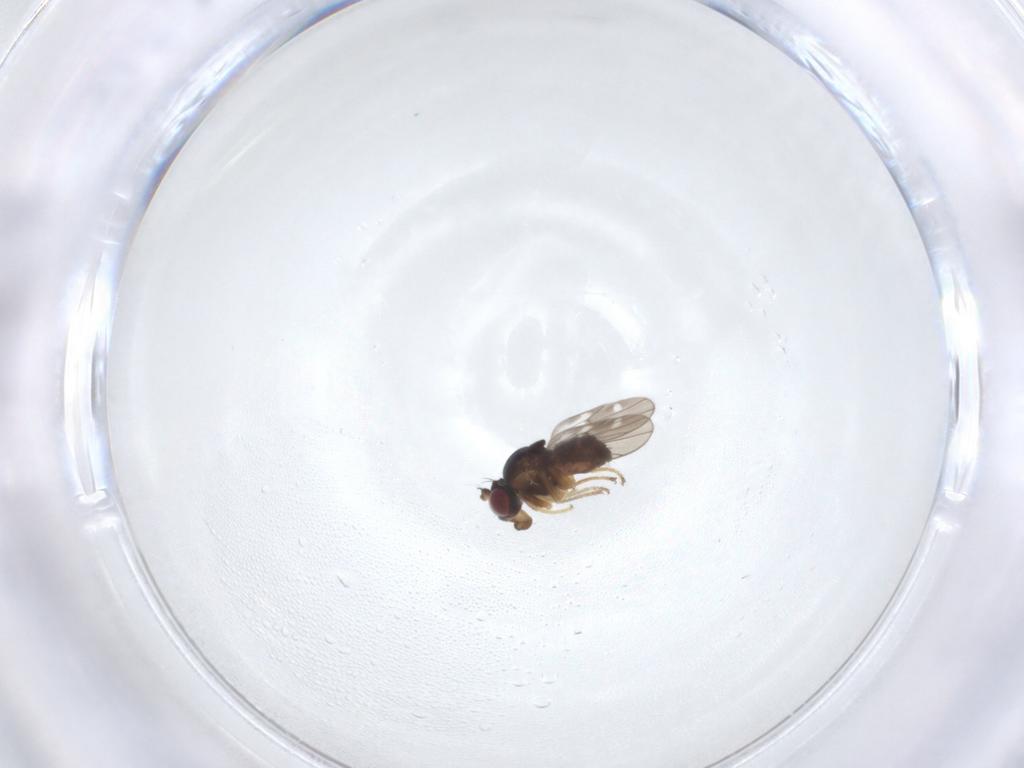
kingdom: Animalia
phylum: Arthropoda
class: Insecta
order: Diptera
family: Ephydridae
